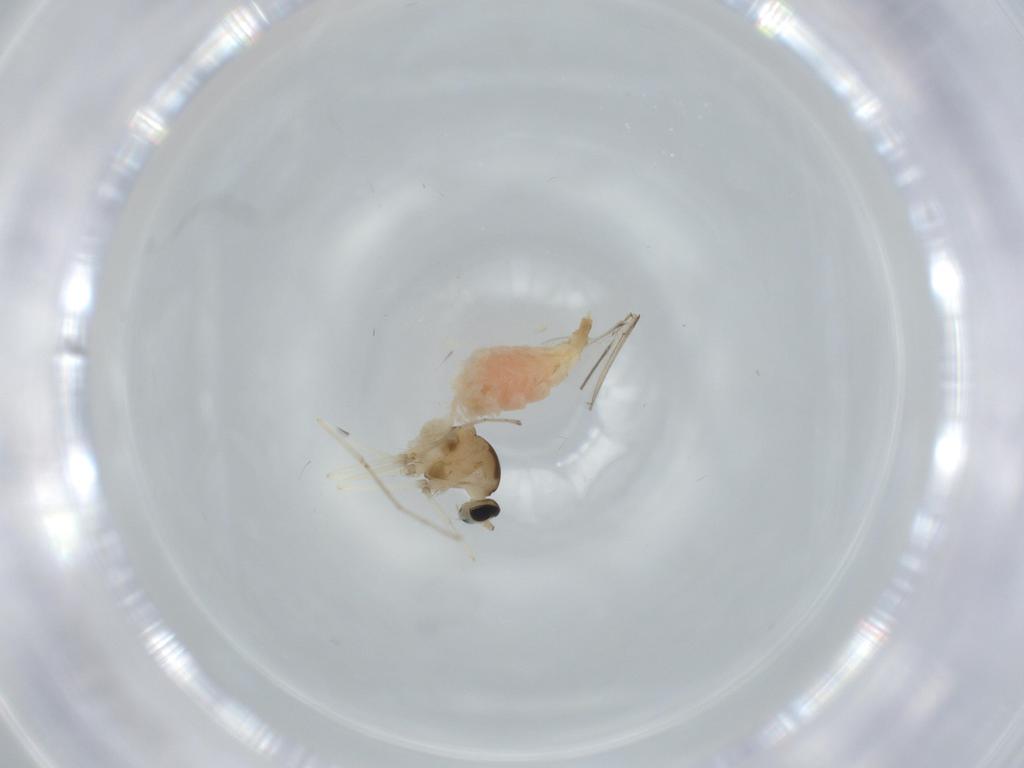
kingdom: Animalia
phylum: Arthropoda
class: Insecta
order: Diptera
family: Cecidomyiidae
